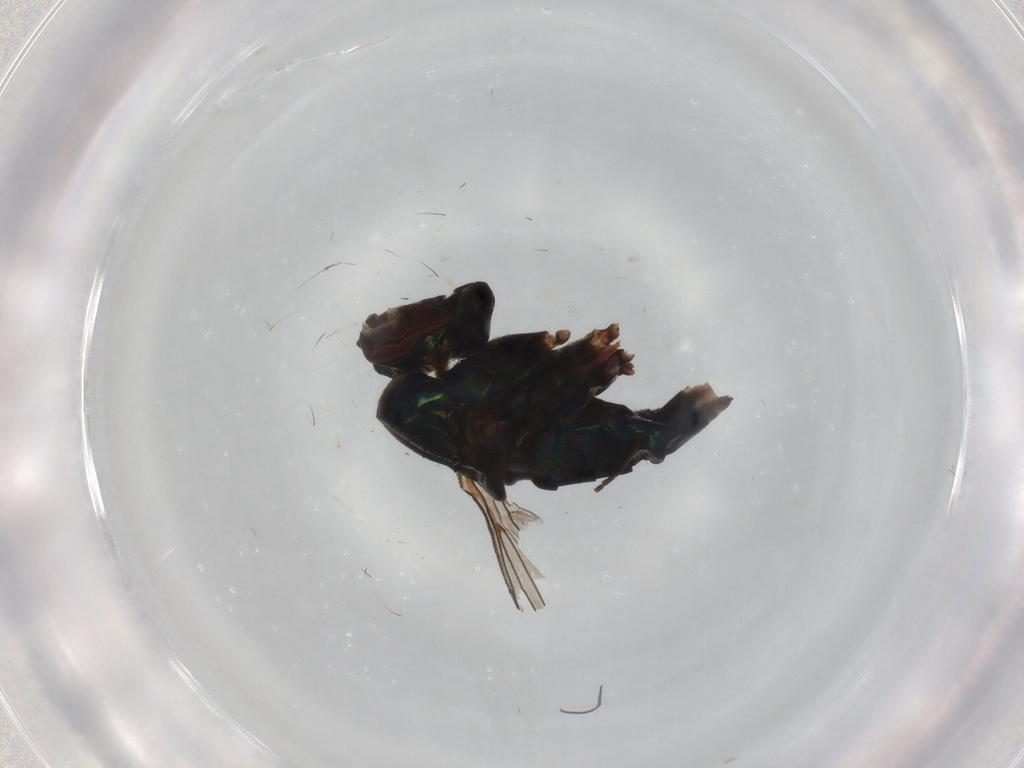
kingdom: Animalia
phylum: Arthropoda
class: Insecta
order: Diptera
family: Dolichopodidae
